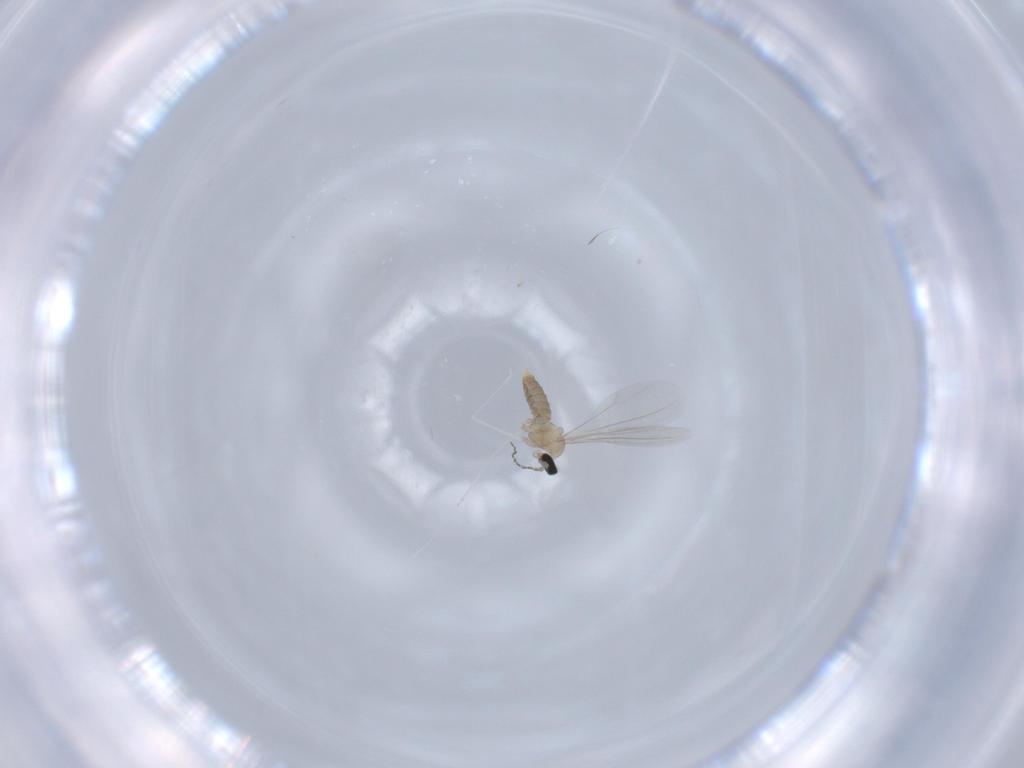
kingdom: Animalia
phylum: Arthropoda
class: Insecta
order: Diptera
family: Cecidomyiidae
